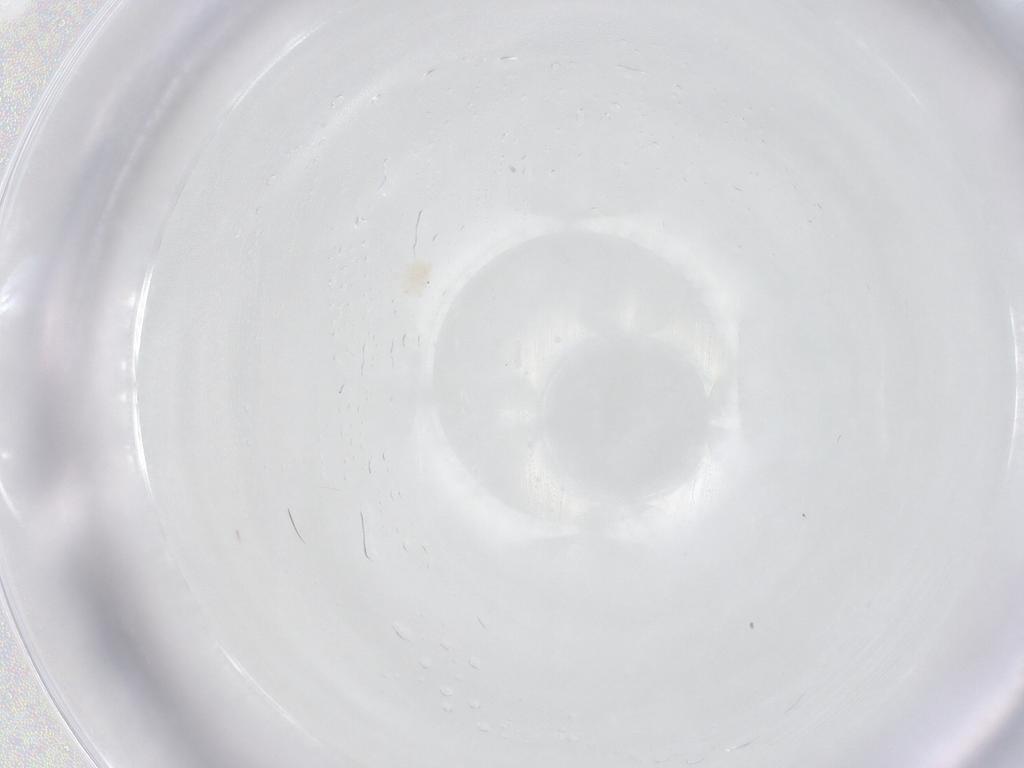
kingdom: Animalia
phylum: Arthropoda
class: Arachnida
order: Trombidiformes
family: Anystidae
